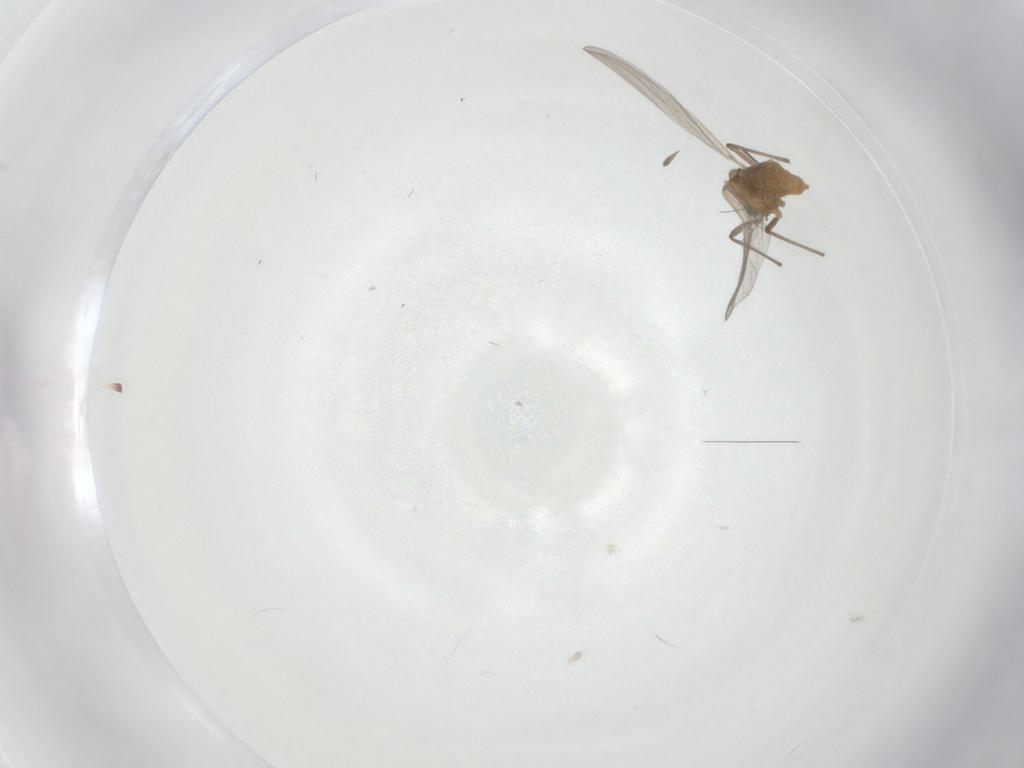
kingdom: Animalia
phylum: Arthropoda
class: Insecta
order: Diptera
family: Chironomidae
